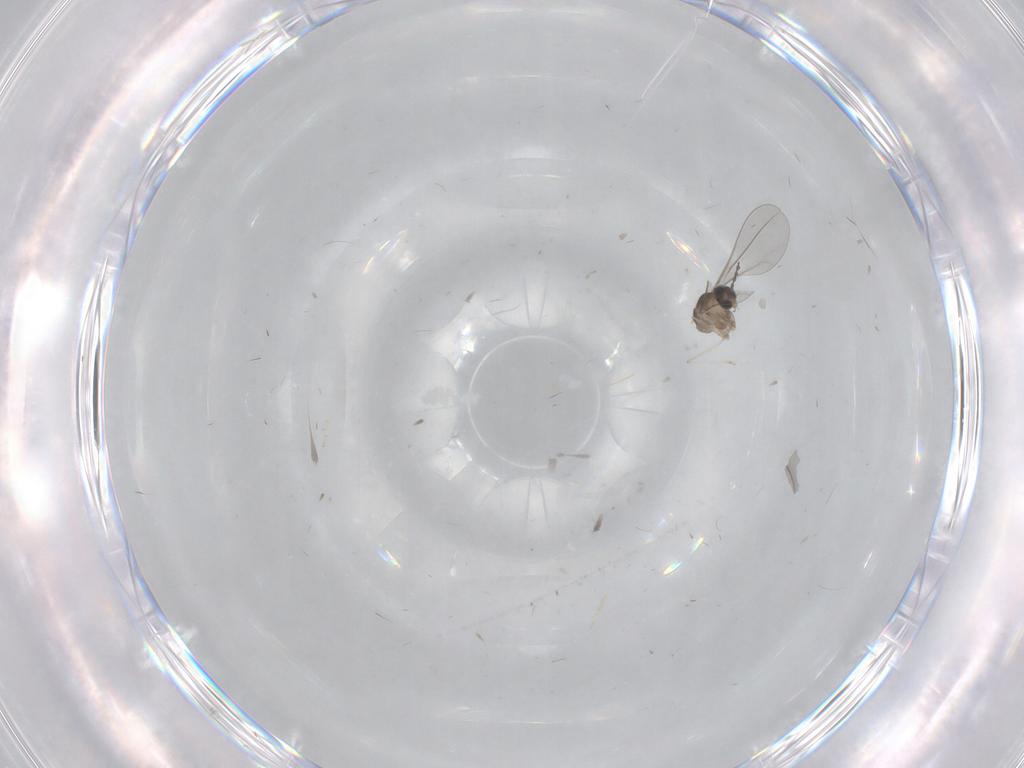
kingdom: Animalia
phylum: Arthropoda
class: Insecta
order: Diptera
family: Cecidomyiidae
